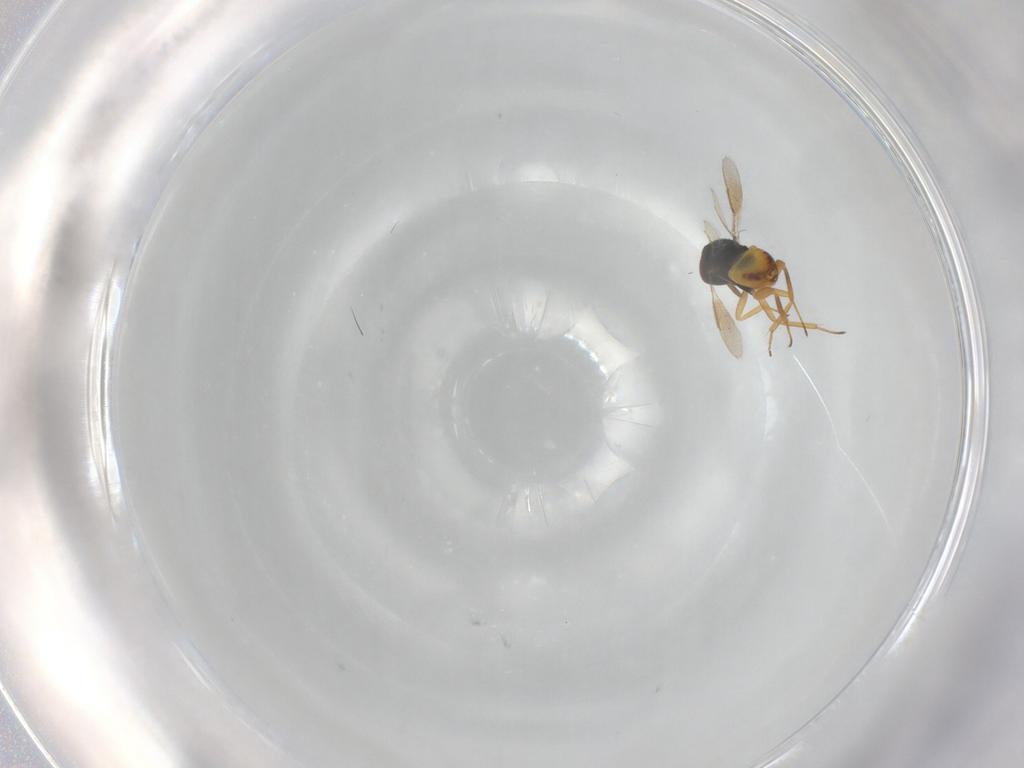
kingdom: Animalia
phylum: Arthropoda
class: Insecta
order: Hymenoptera
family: Aphelinidae
